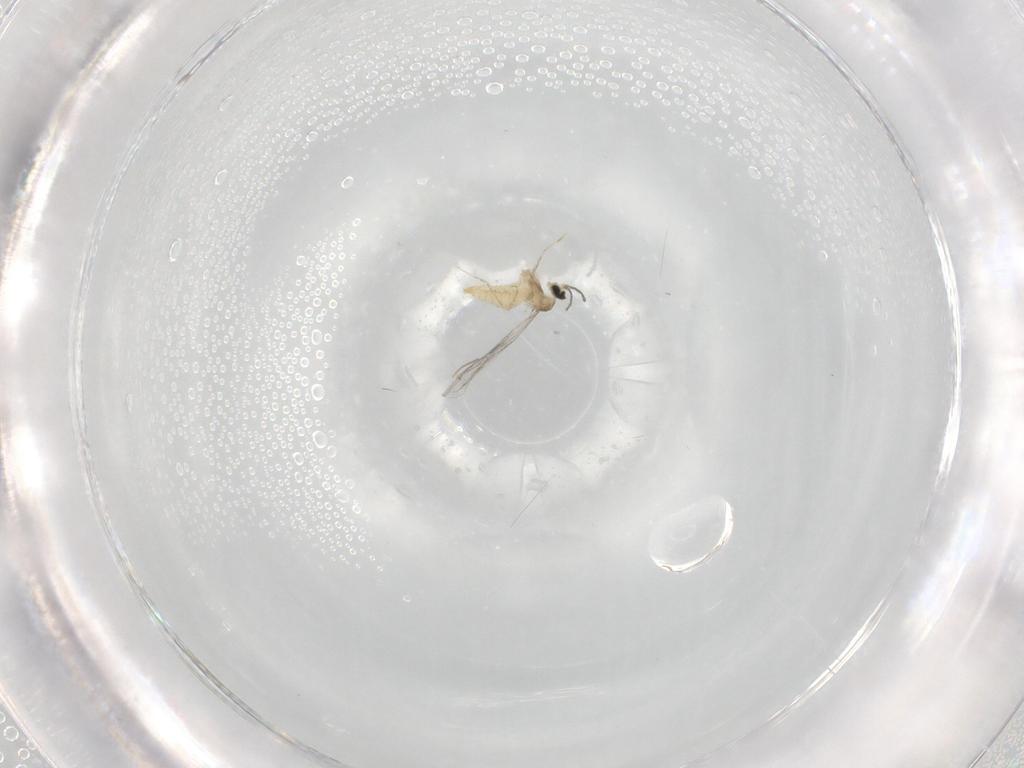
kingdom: Animalia
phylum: Arthropoda
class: Insecta
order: Diptera
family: Cecidomyiidae
